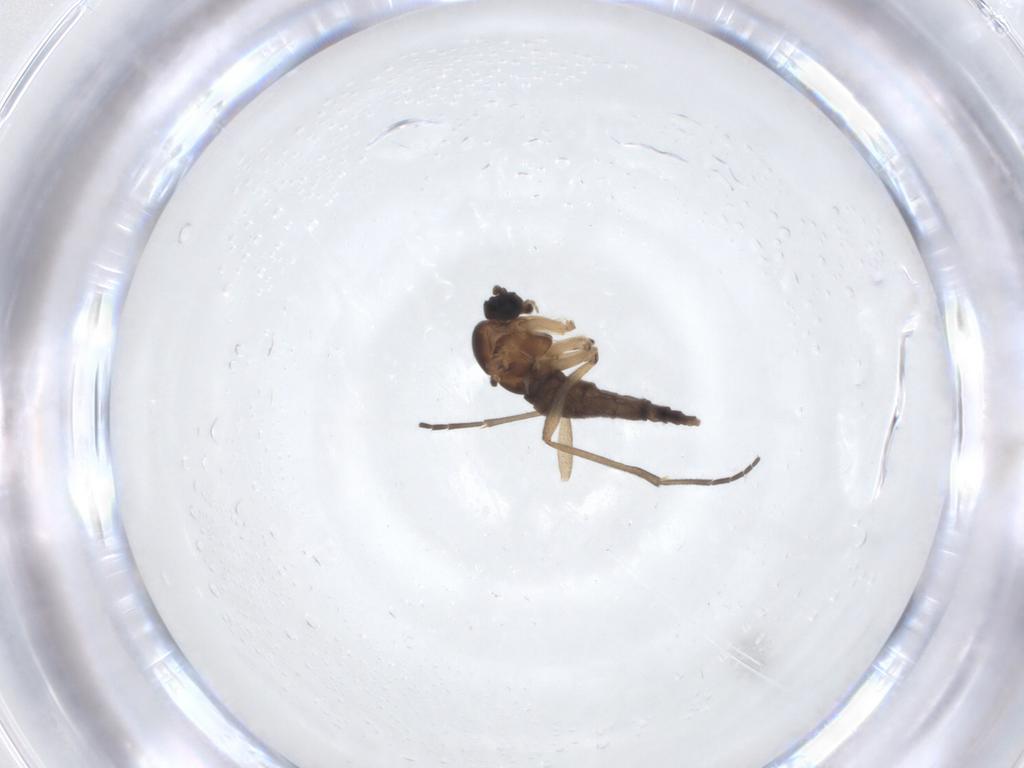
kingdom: Animalia
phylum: Arthropoda
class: Insecta
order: Diptera
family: Sciaridae
